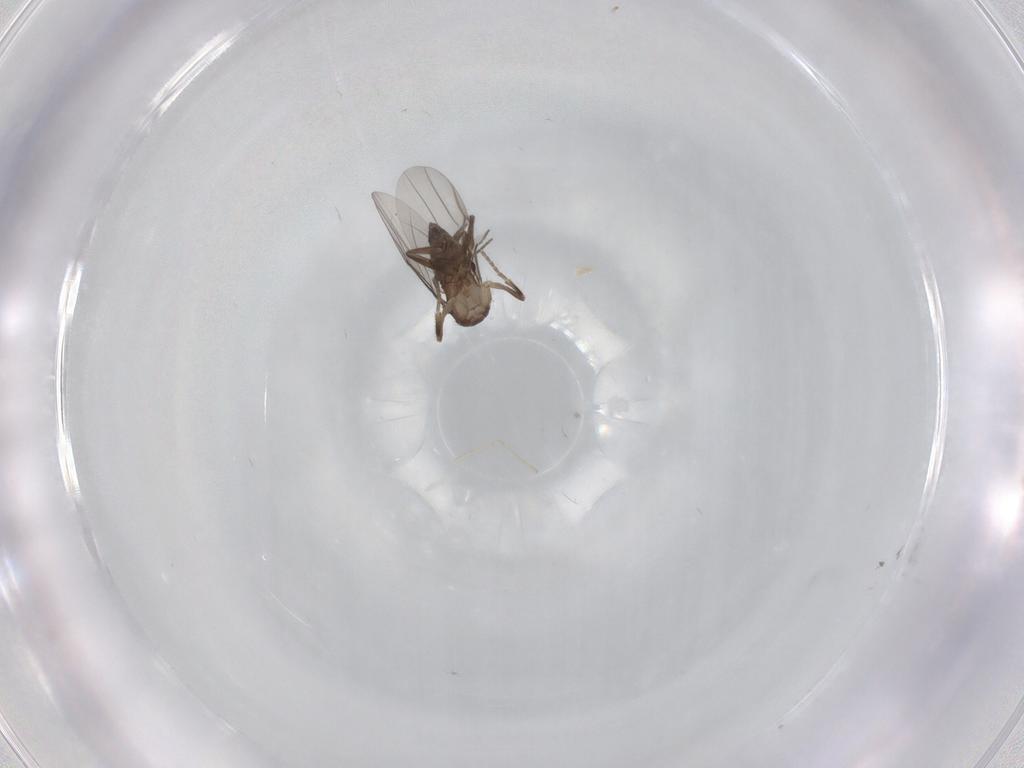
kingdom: Animalia
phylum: Arthropoda
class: Insecta
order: Diptera
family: Cecidomyiidae
